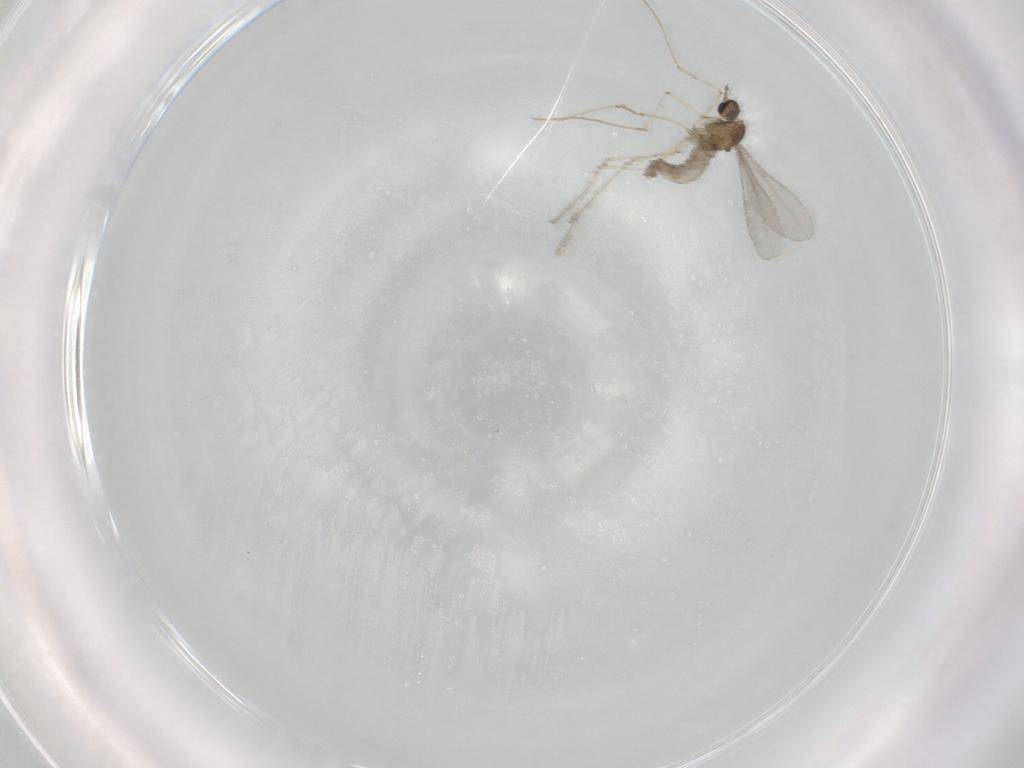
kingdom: Animalia
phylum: Arthropoda
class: Insecta
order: Diptera
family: Cecidomyiidae
